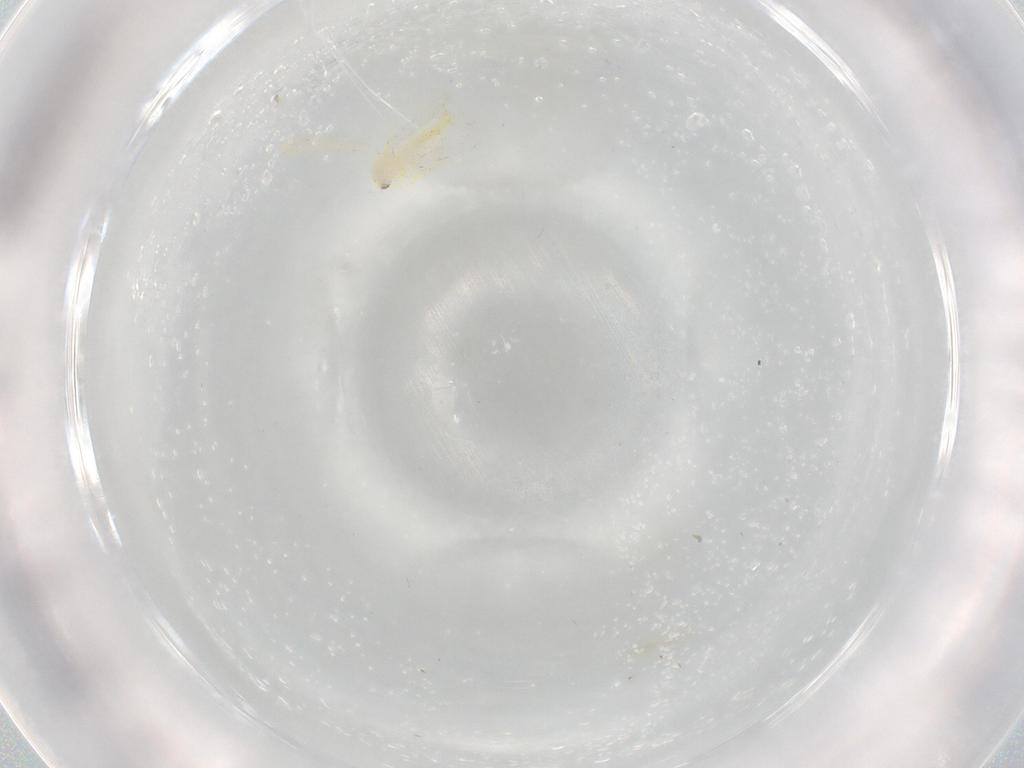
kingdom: Animalia
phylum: Arthropoda
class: Insecta
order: Hemiptera
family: Aleyrodidae
